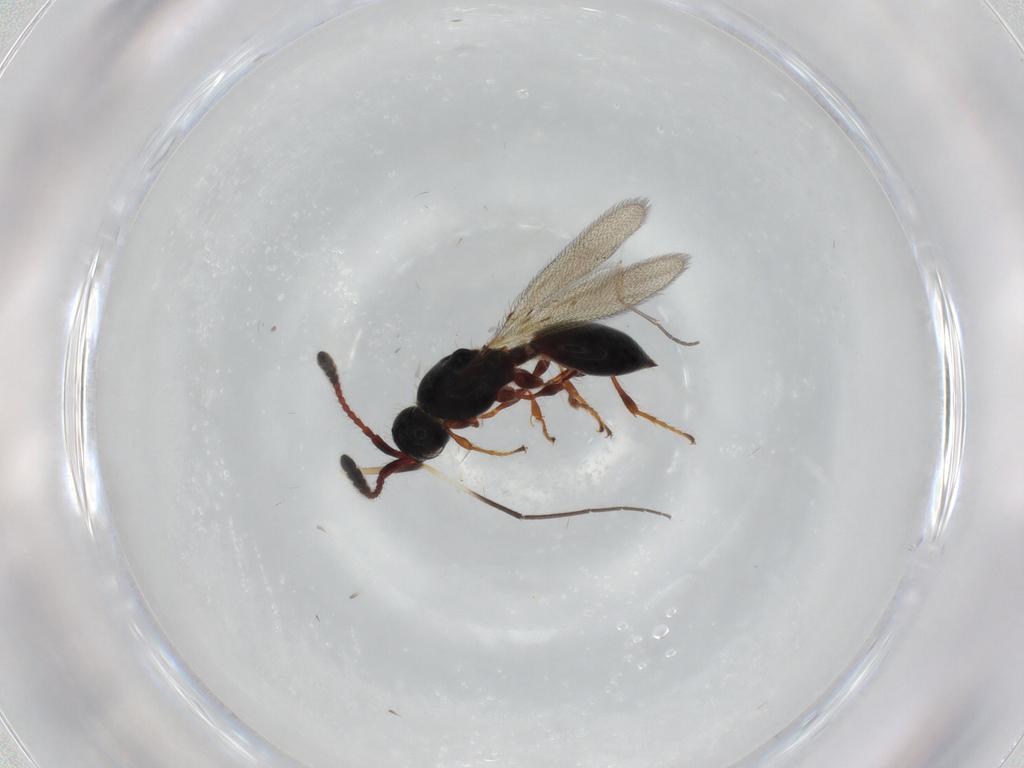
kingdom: Animalia
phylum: Arthropoda
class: Insecta
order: Hymenoptera
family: Diapriidae
